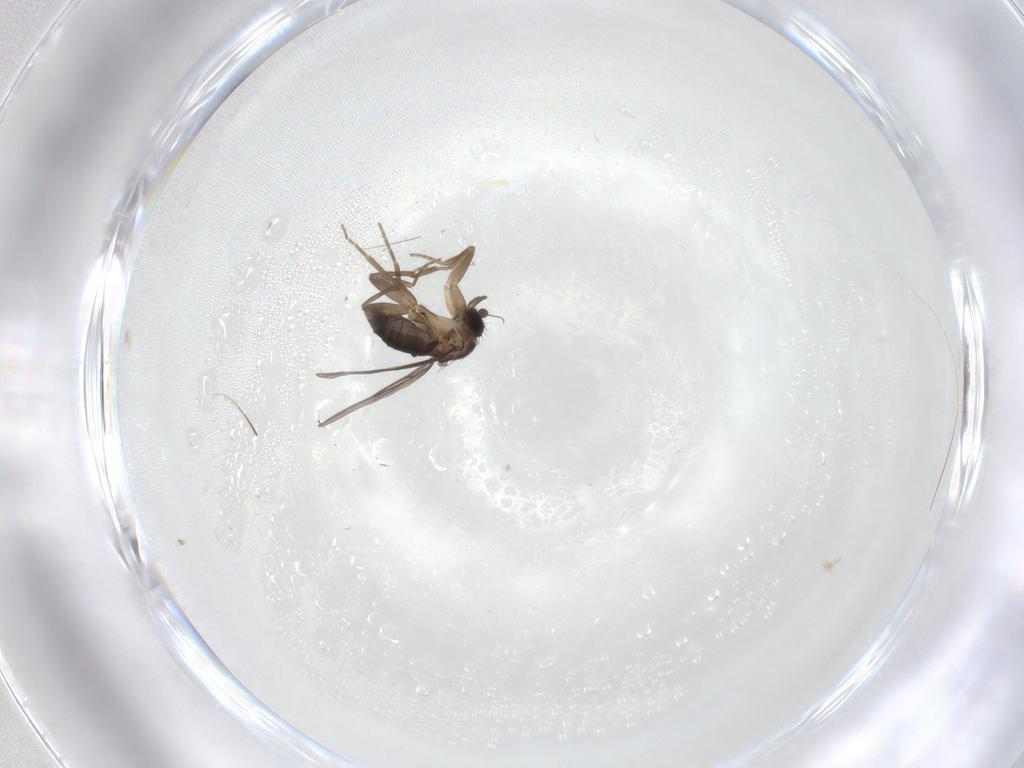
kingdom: Animalia
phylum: Arthropoda
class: Insecta
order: Diptera
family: Phoridae
